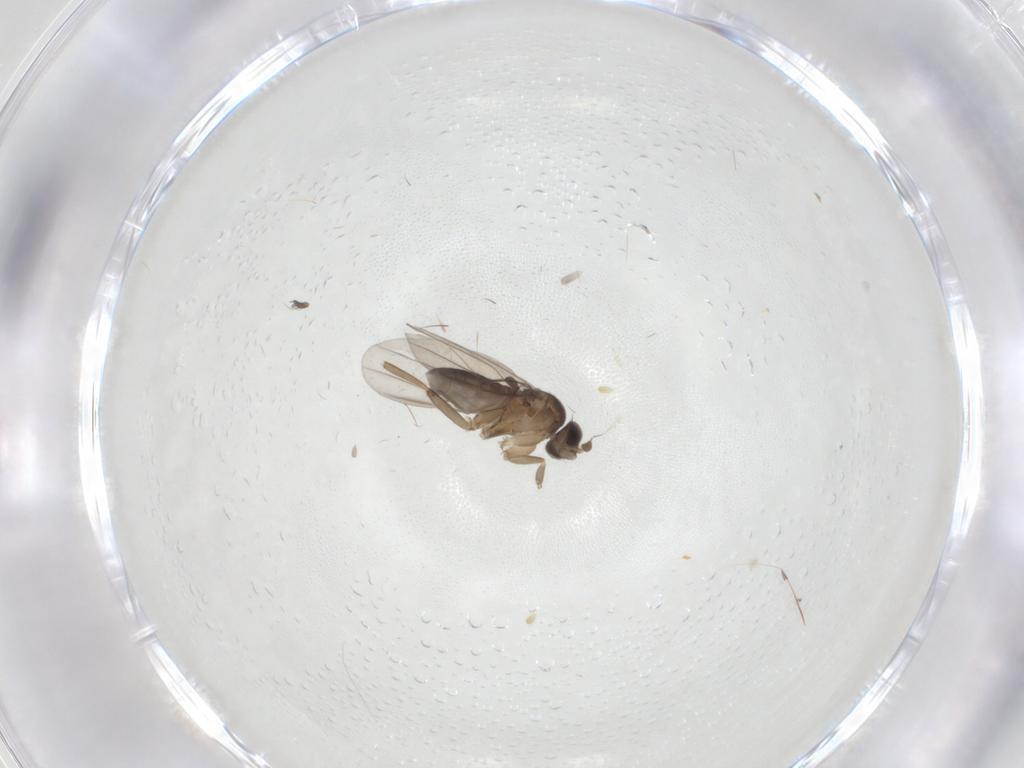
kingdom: Animalia
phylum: Arthropoda
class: Insecta
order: Diptera
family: Phoridae
